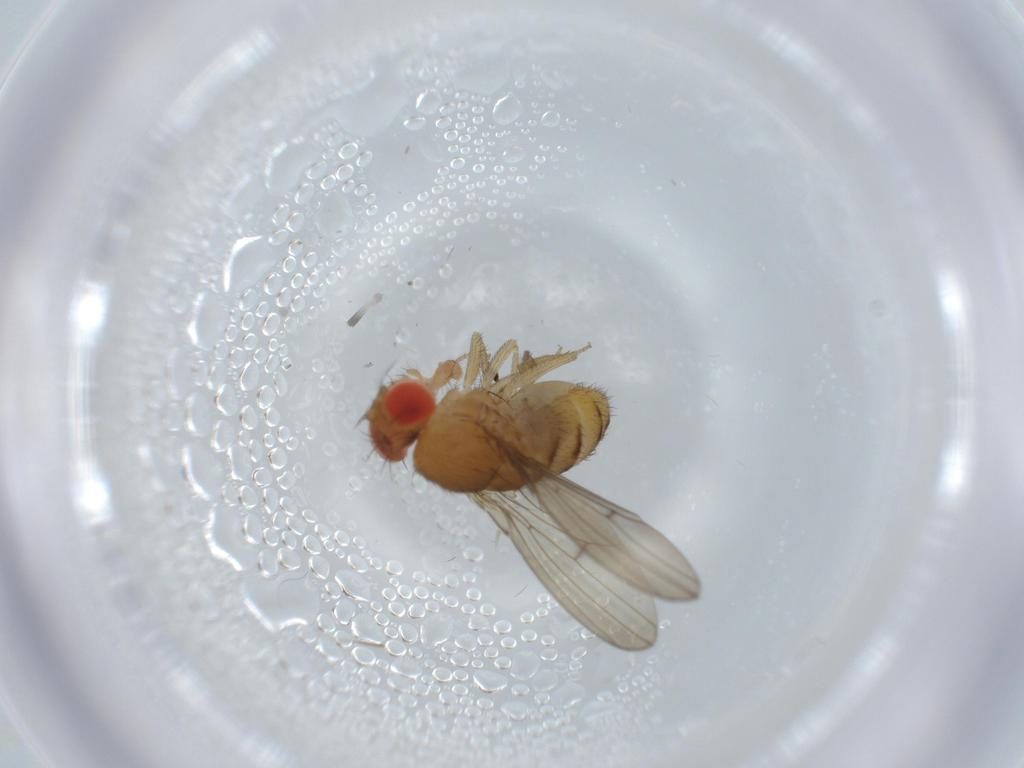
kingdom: Animalia
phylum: Arthropoda
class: Insecta
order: Diptera
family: Drosophilidae
